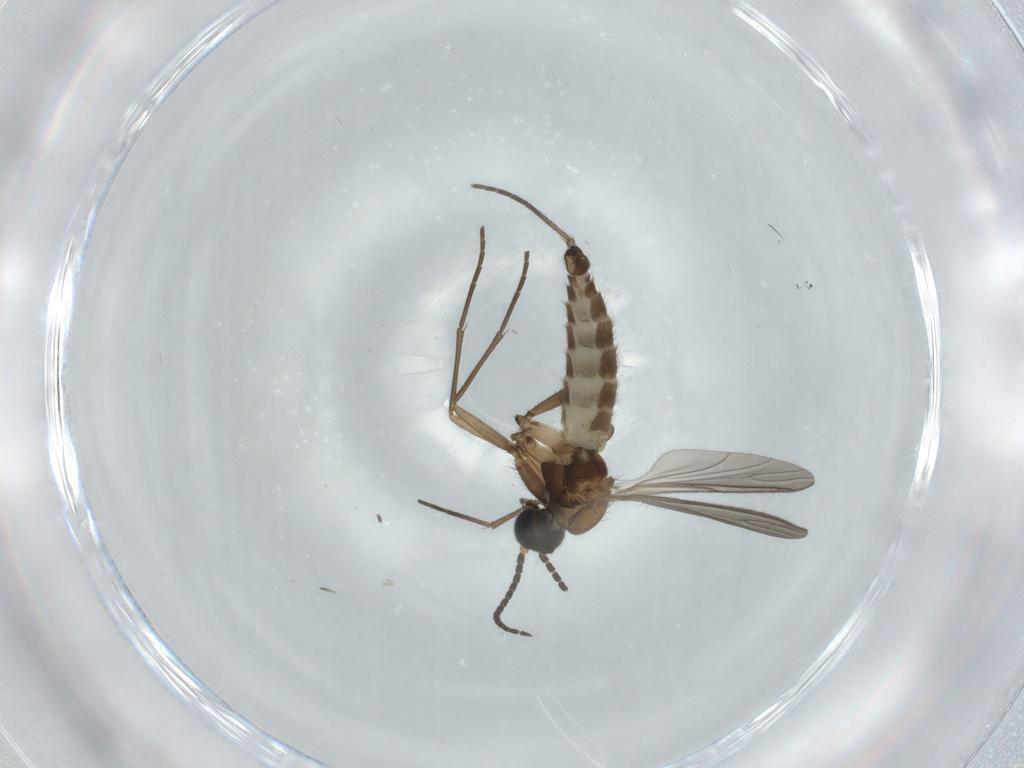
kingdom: Animalia
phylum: Arthropoda
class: Insecta
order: Diptera
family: Sciaridae
